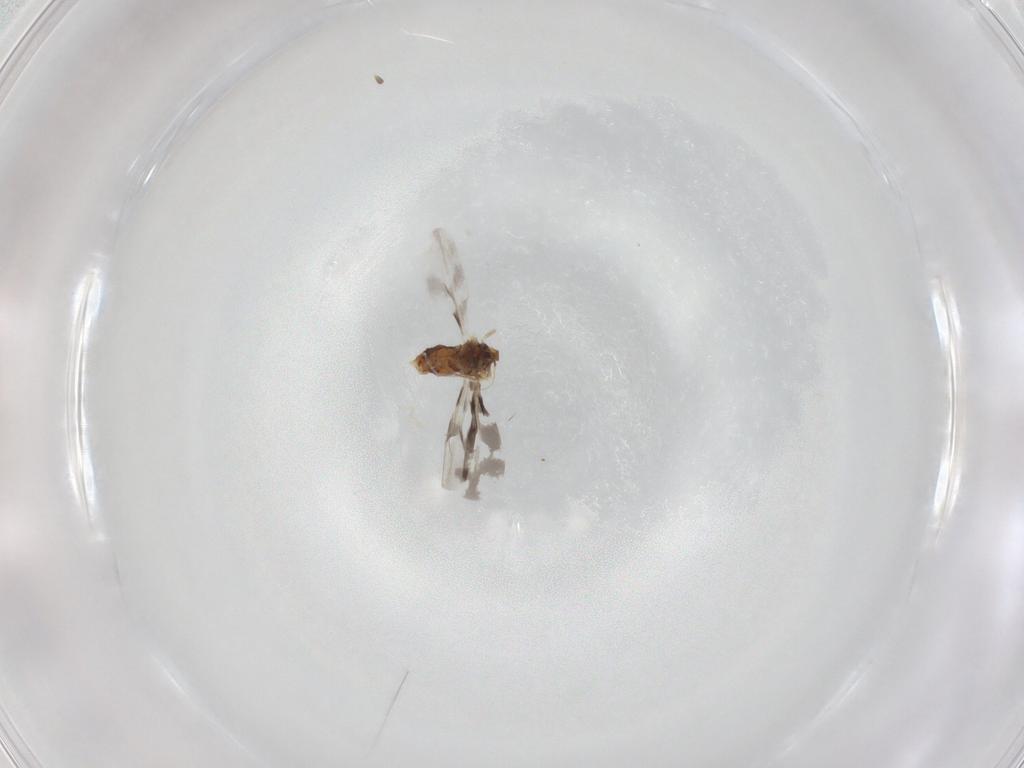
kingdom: Animalia
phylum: Arthropoda
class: Insecta
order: Hemiptera
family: Aleyrodidae
